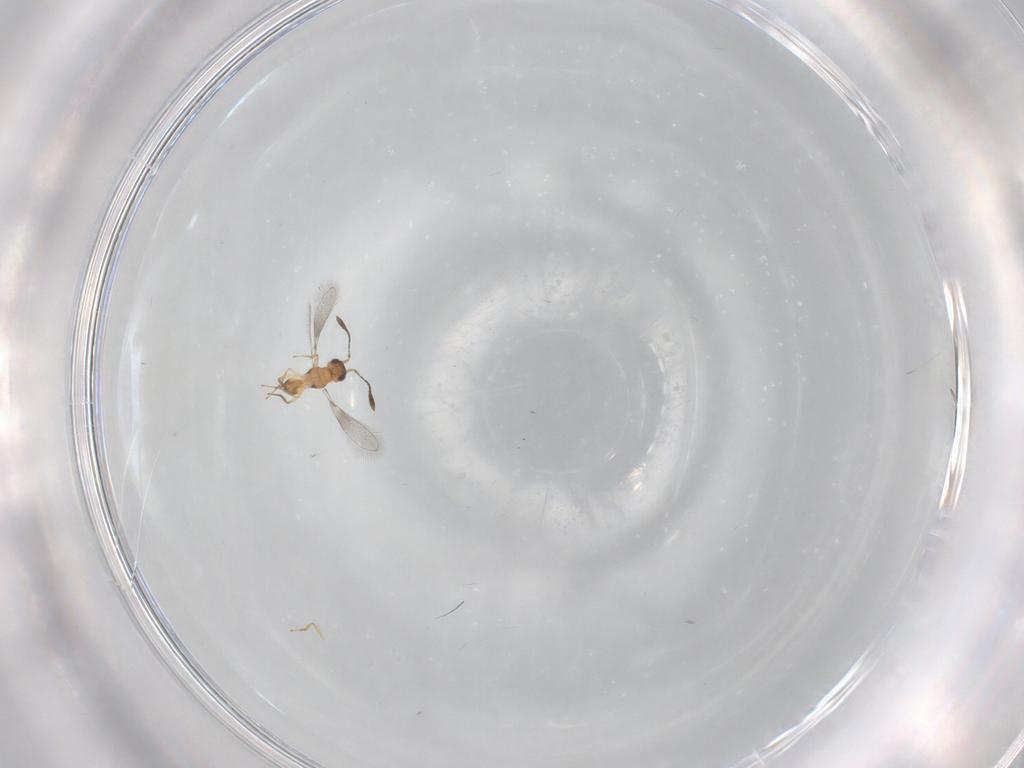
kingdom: Animalia
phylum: Arthropoda
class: Insecta
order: Hymenoptera
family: Mymaridae
